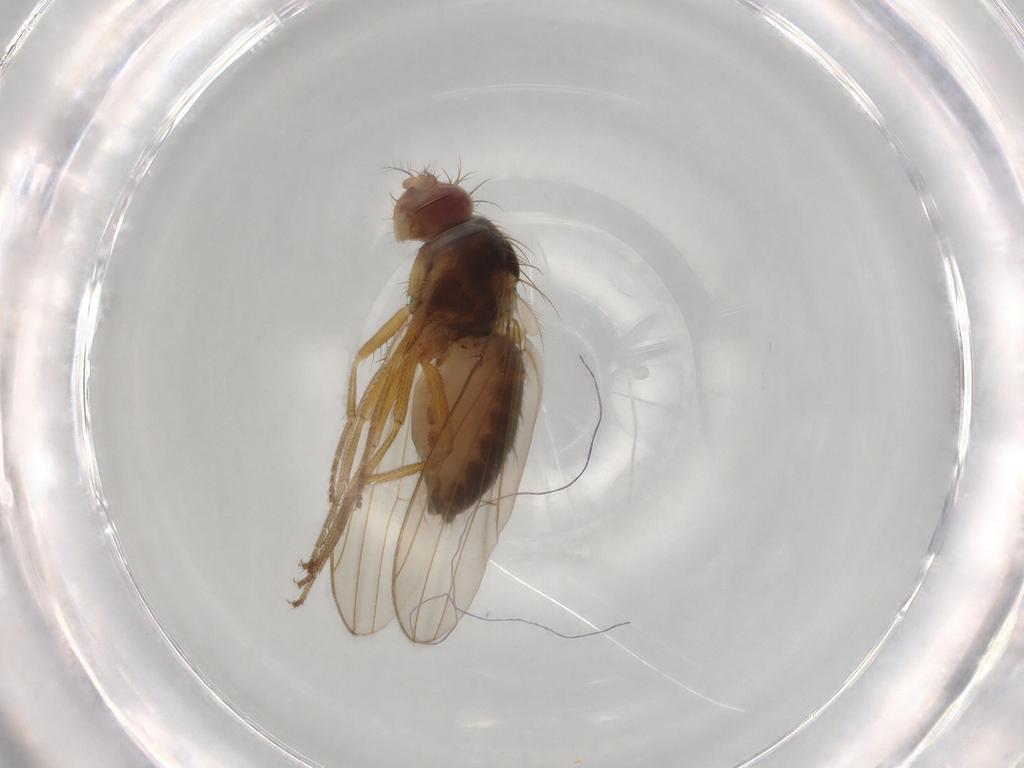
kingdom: Animalia
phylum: Arthropoda
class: Insecta
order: Diptera
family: Drosophilidae
